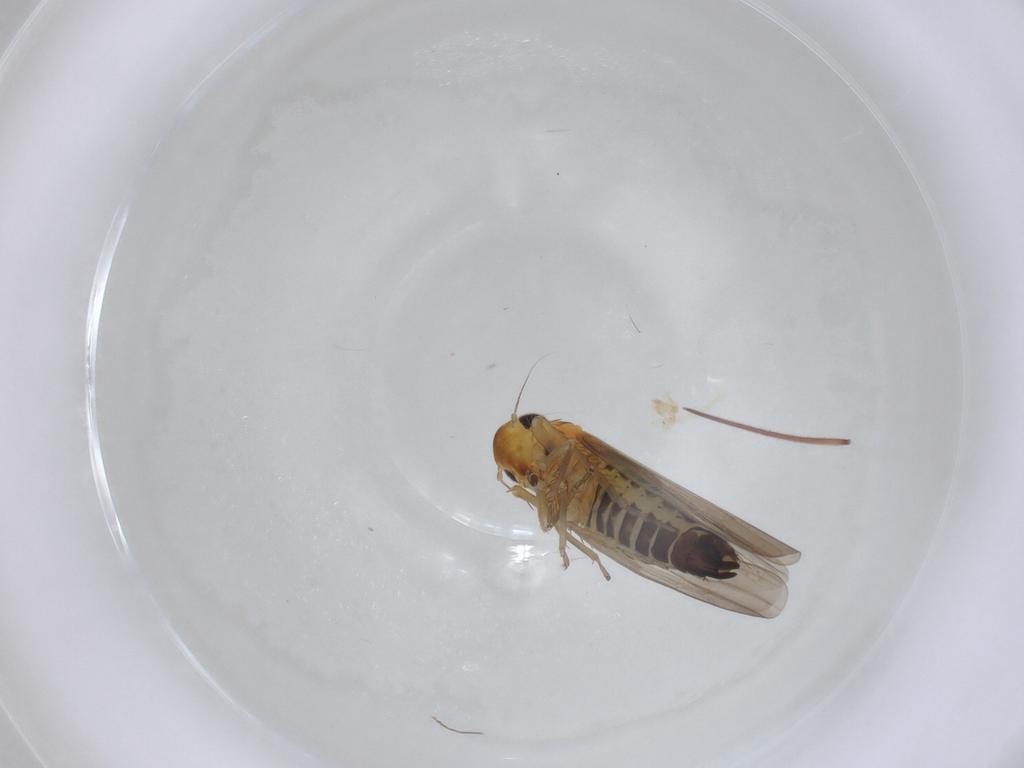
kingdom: Animalia
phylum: Arthropoda
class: Insecta
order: Hemiptera
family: Cicadellidae
